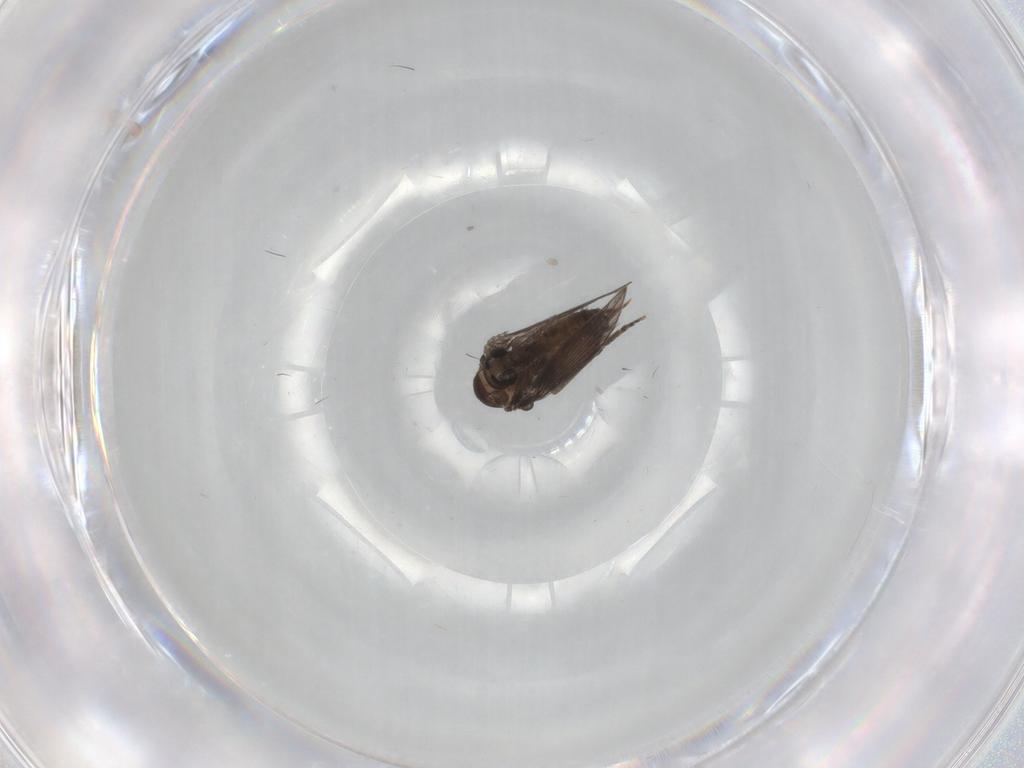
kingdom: Animalia
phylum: Arthropoda
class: Insecta
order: Diptera
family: Psychodidae
